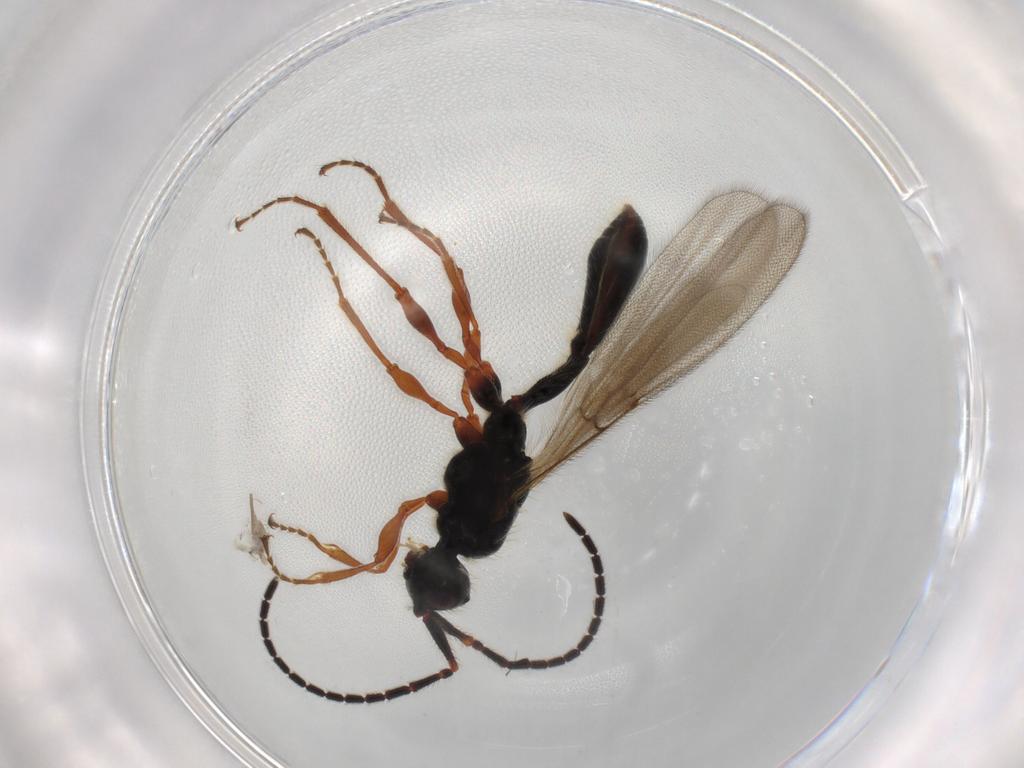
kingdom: Animalia
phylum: Arthropoda
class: Insecta
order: Hymenoptera
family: Diapriidae
